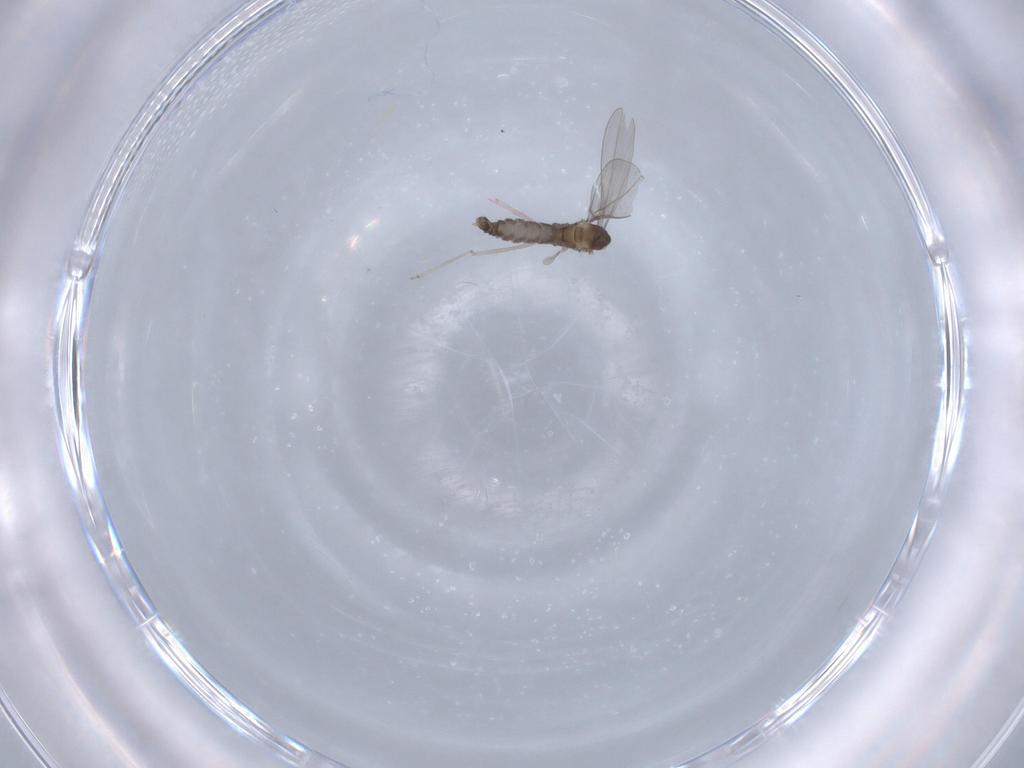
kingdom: Animalia
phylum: Arthropoda
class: Insecta
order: Diptera
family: Cecidomyiidae
